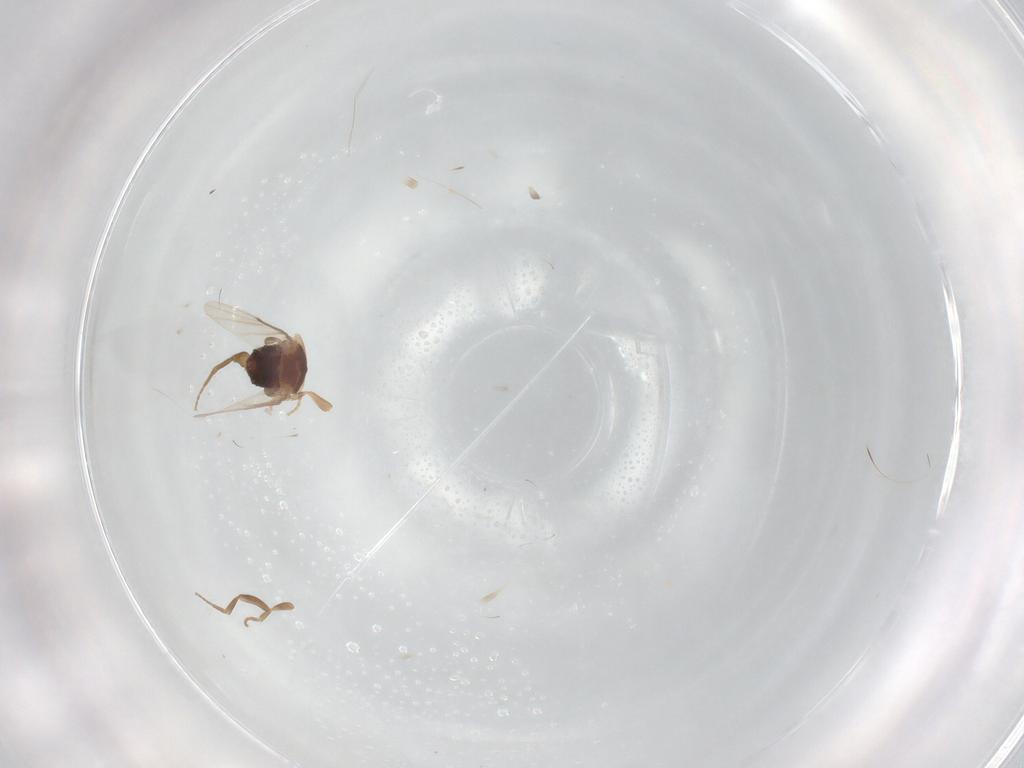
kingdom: Animalia
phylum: Arthropoda
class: Insecta
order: Diptera
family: Phoridae
